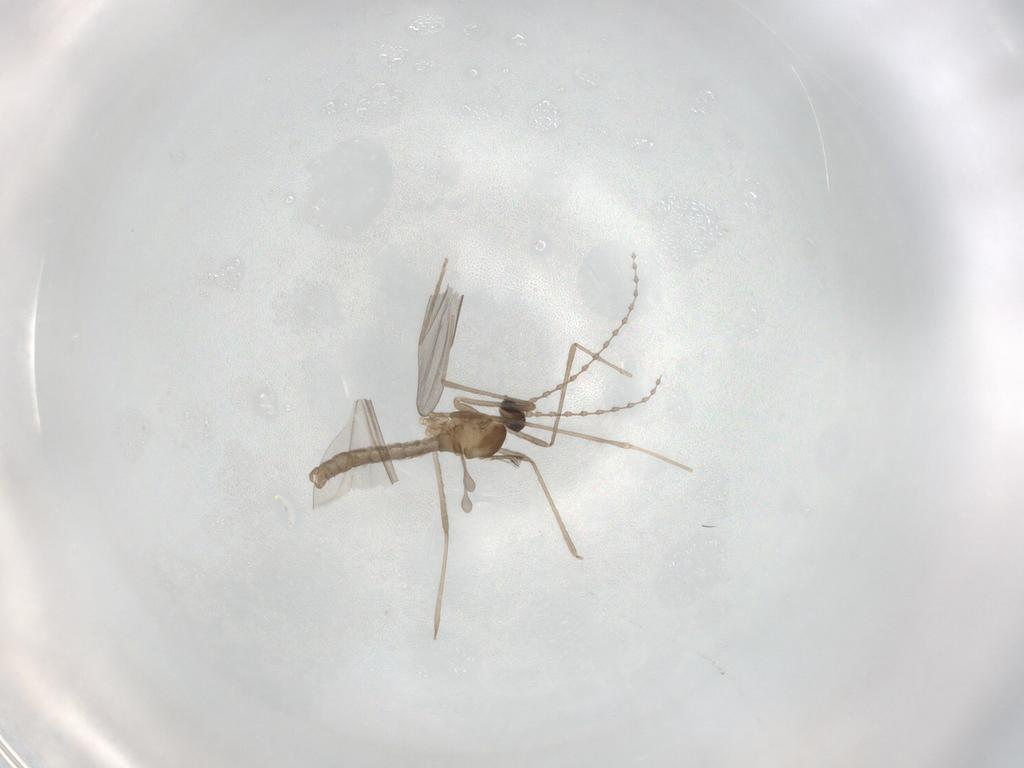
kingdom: Animalia
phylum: Arthropoda
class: Insecta
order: Diptera
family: Cecidomyiidae
